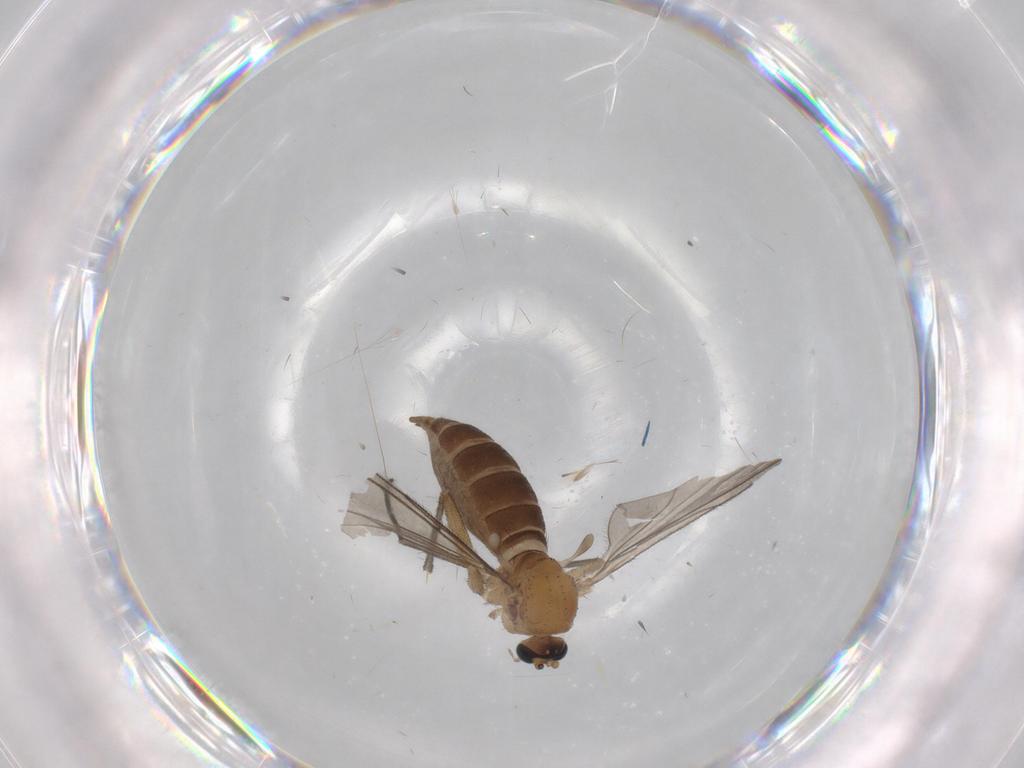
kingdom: Animalia
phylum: Arthropoda
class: Insecta
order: Diptera
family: Sciaridae
